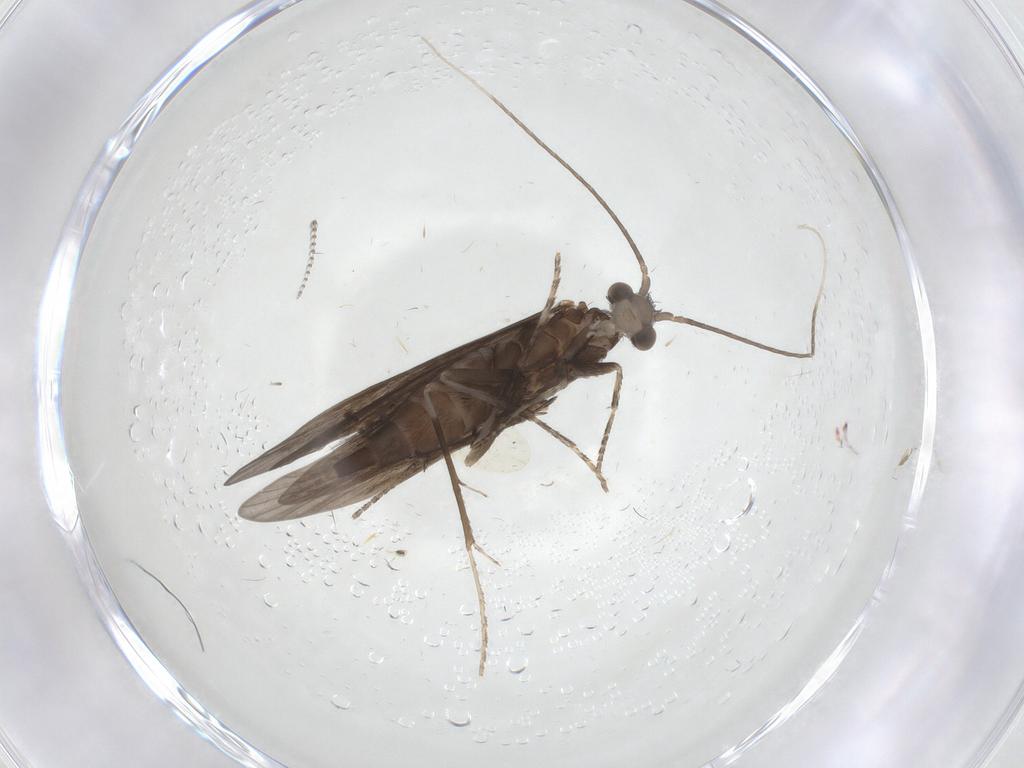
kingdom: Animalia
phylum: Arthropoda
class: Insecta
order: Trichoptera
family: Xiphocentronidae
